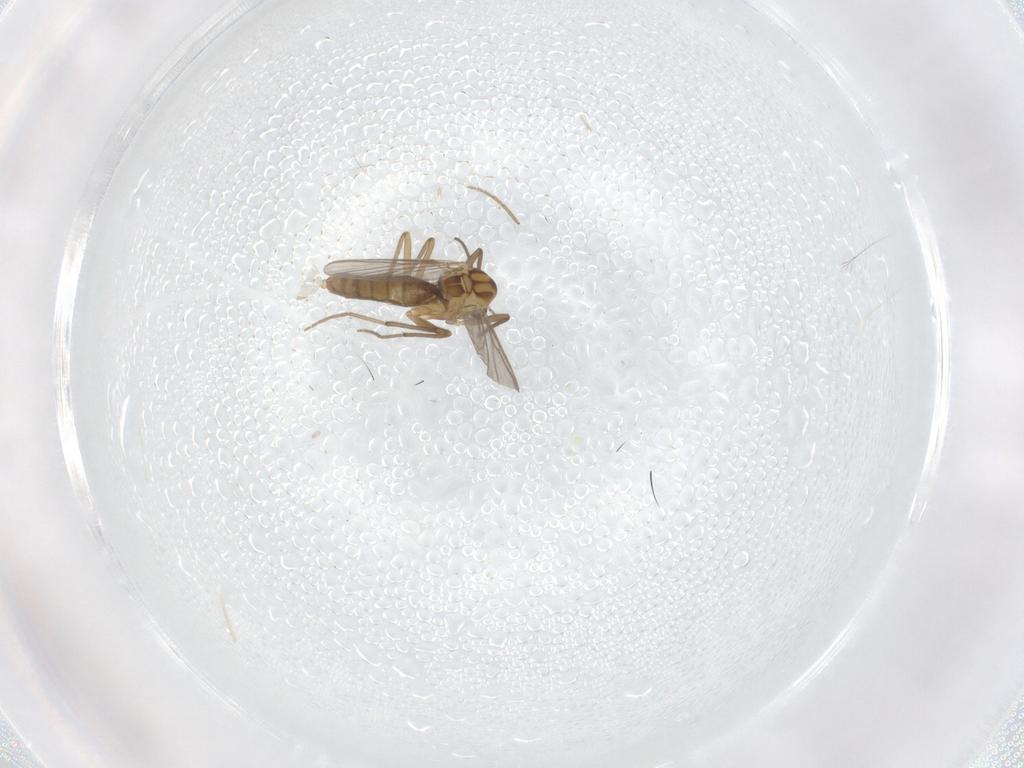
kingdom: Animalia
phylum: Arthropoda
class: Insecta
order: Diptera
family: Chironomidae
